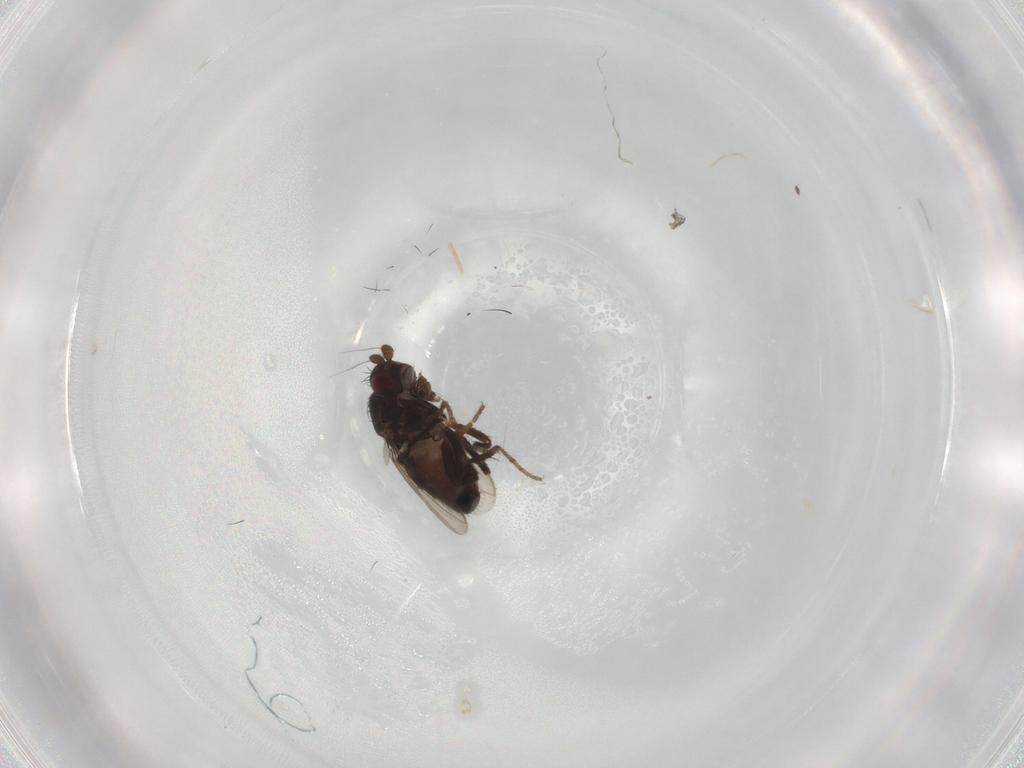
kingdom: Animalia
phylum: Arthropoda
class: Insecta
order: Diptera
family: Sphaeroceridae
